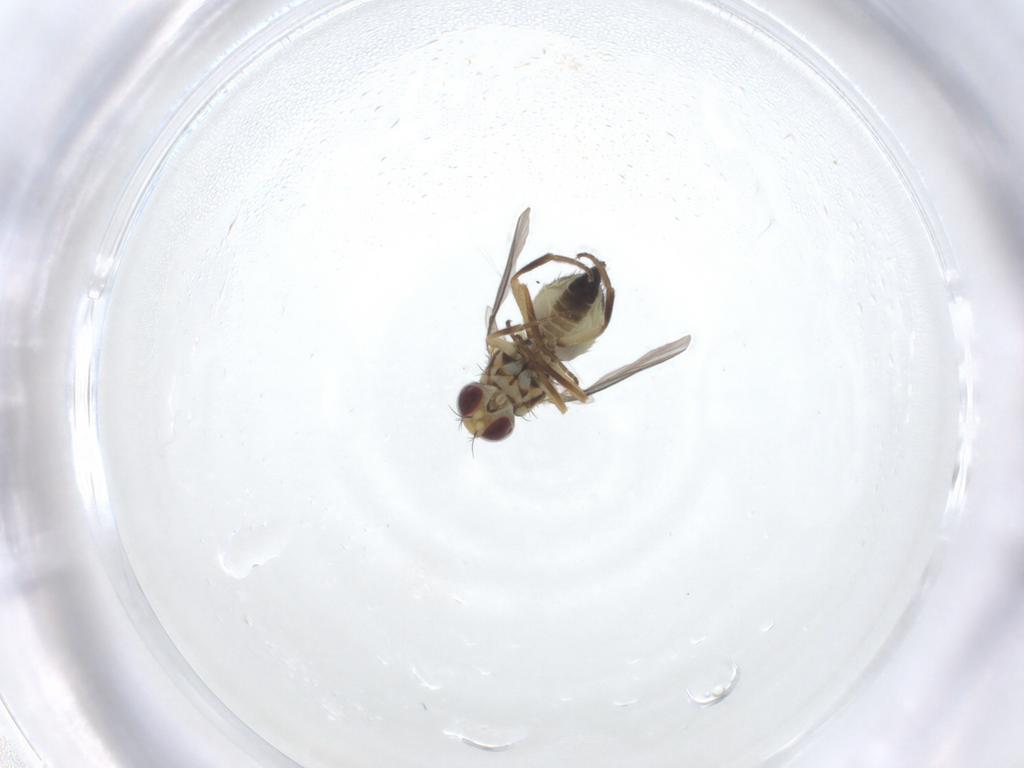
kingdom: Animalia
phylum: Arthropoda
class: Insecta
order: Diptera
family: Agromyzidae
